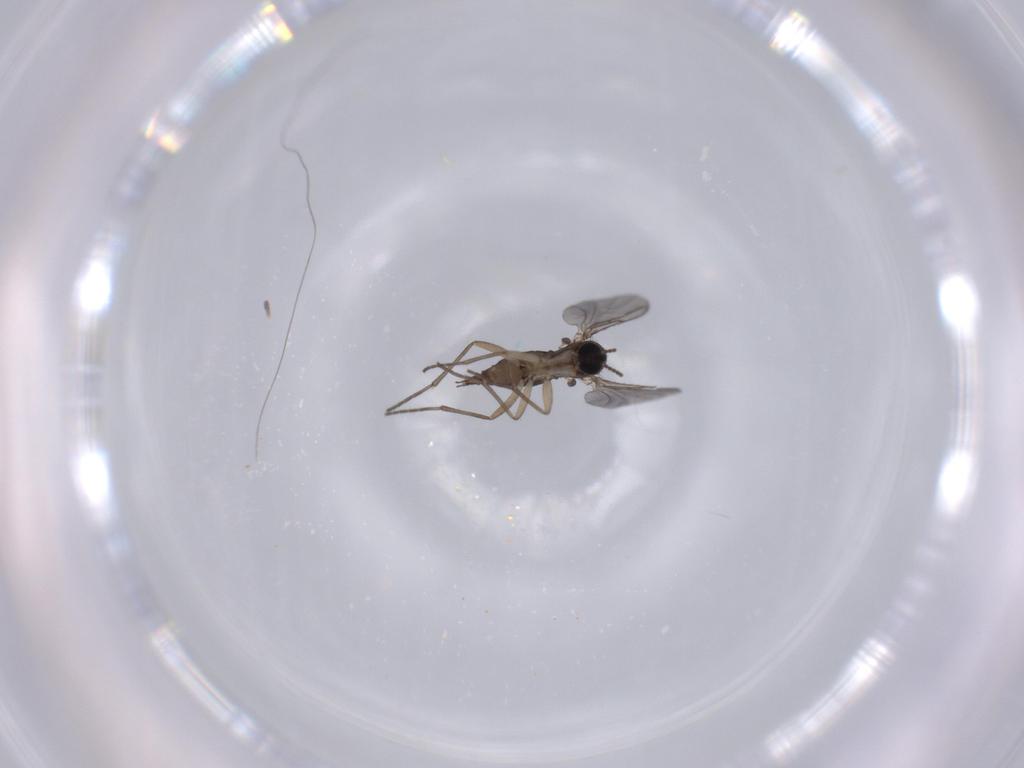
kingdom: Animalia
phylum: Arthropoda
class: Insecta
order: Diptera
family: Cecidomyiidae
